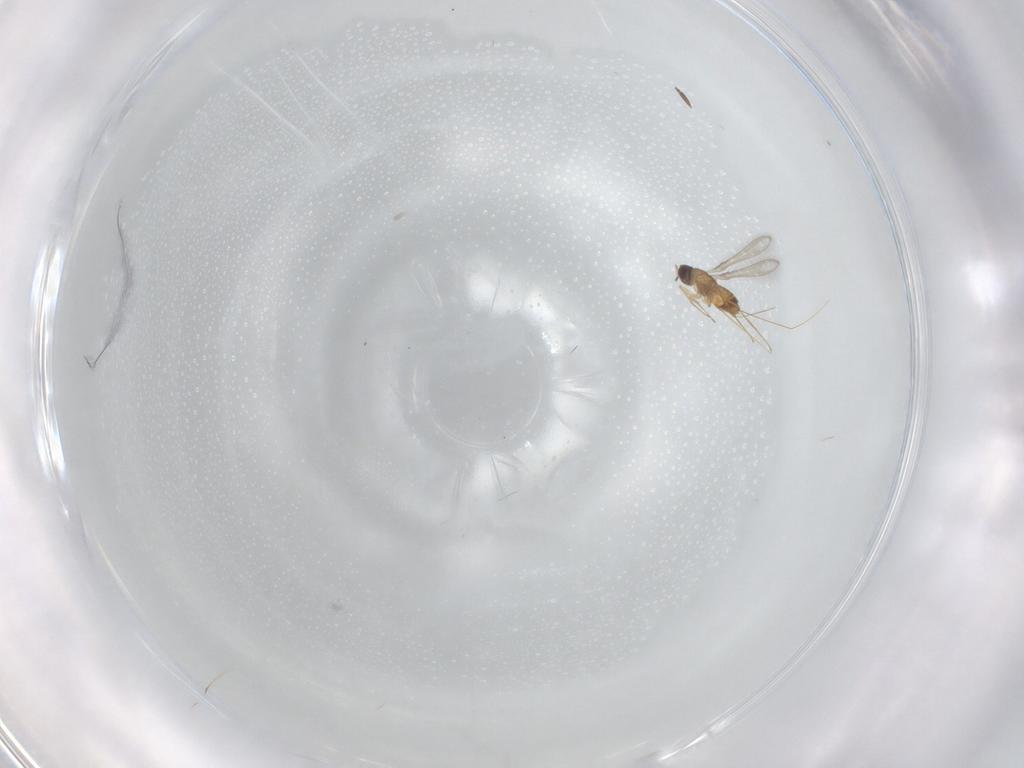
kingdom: Animalia
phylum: Arthropoda
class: Insecta
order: Hymenoptera
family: Mymaridae
